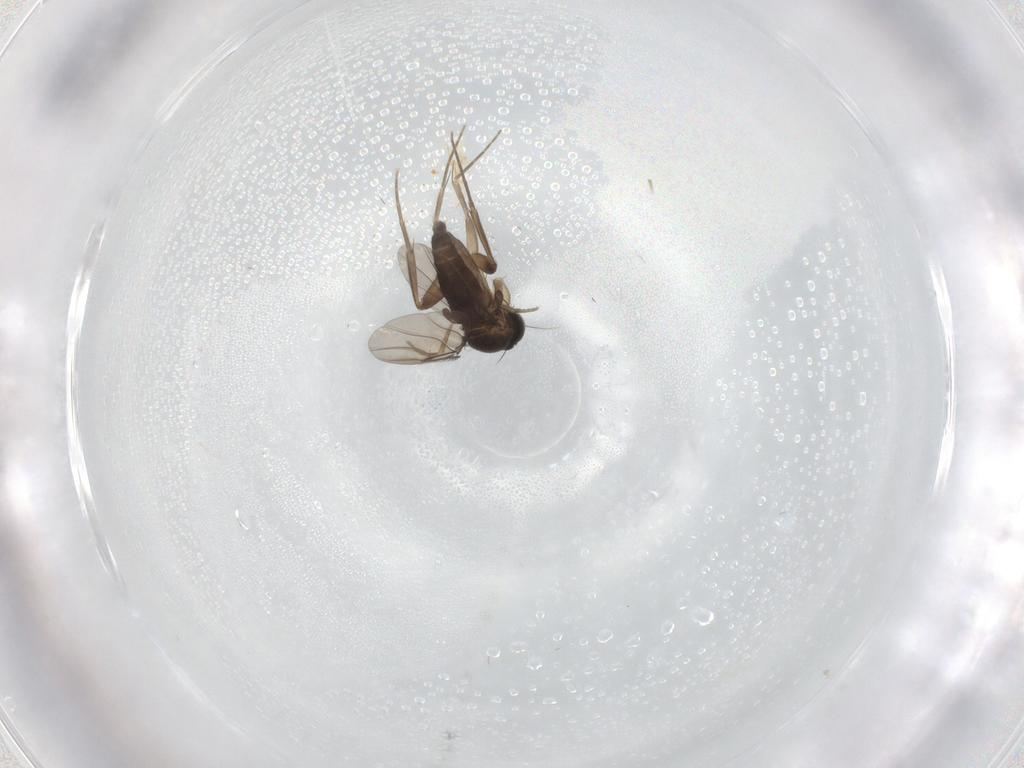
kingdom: Animalia
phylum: Arthropoda
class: Insecta
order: Diptera
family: Phoridae
